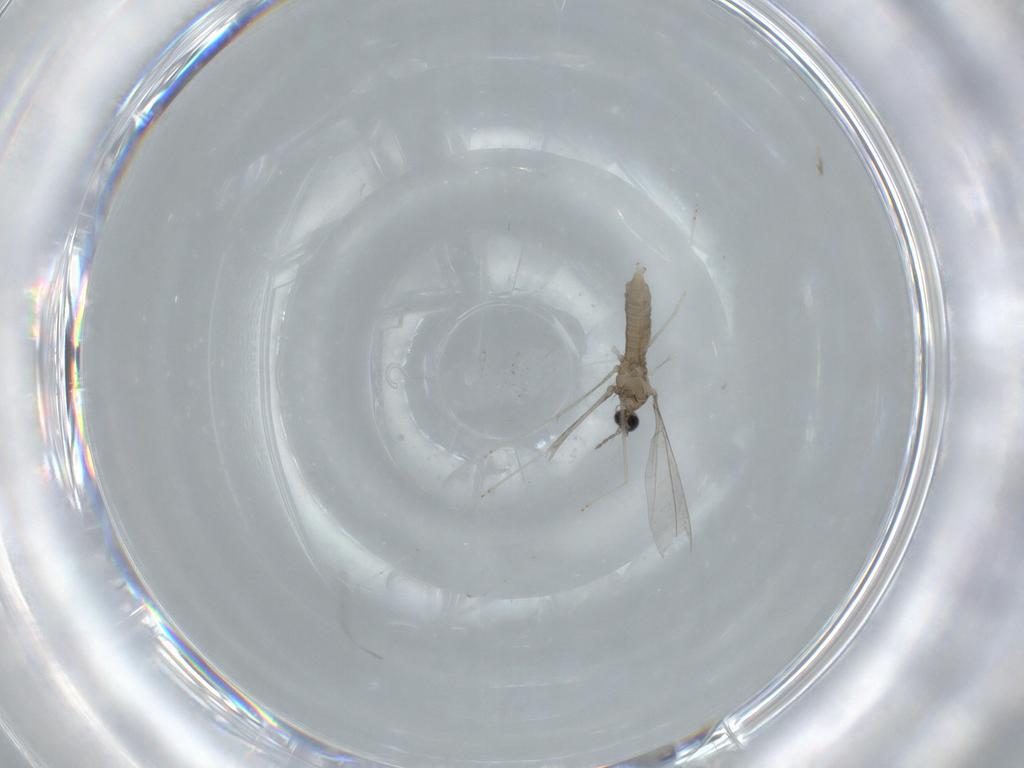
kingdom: Animalia
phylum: Arthropoda
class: Insecta
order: Diptera
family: Cecidomyiidae
